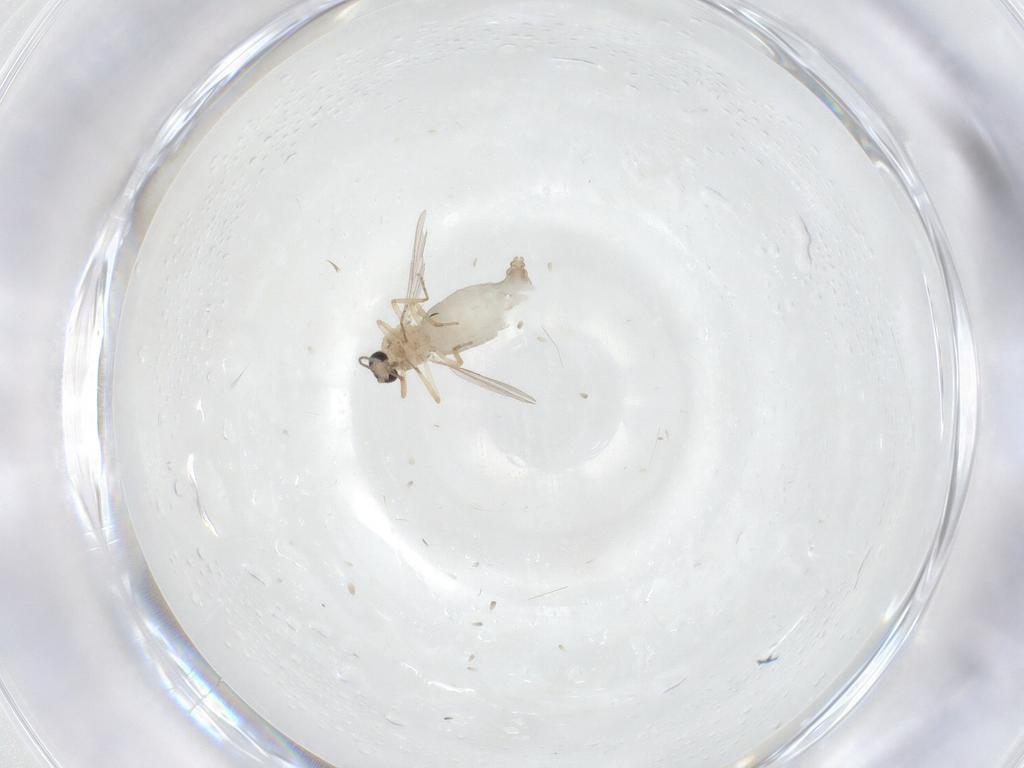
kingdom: Animalia
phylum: Arthropoda
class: Insecta
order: Diptera
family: Ceratopogonidae
